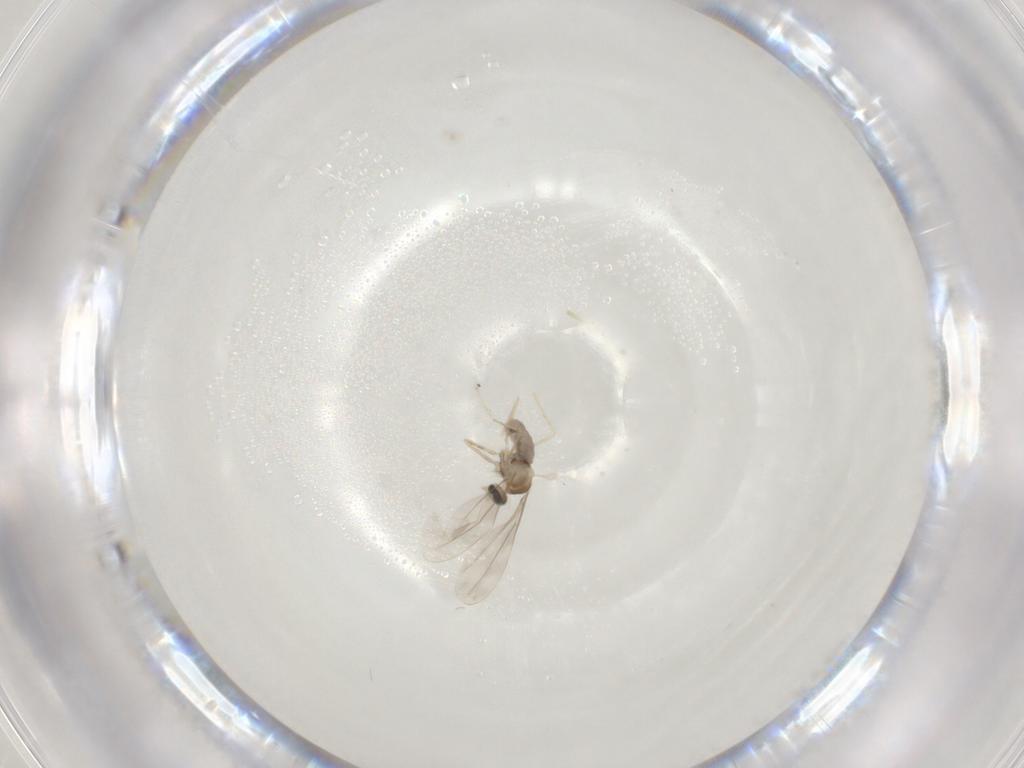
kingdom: Animalia
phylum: Arthropoda
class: Insecta
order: Diptera
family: Cecidomyiidae
